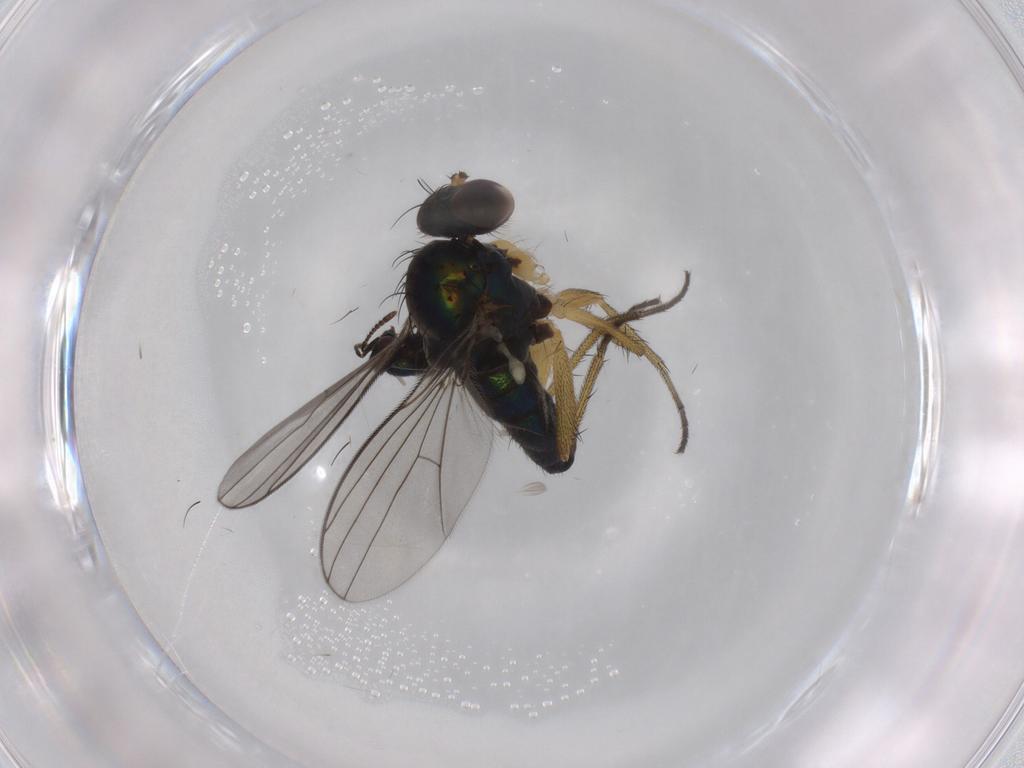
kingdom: Animalia
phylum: Arthropoda
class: Insecta
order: Diptera
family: Dolichopodidae
